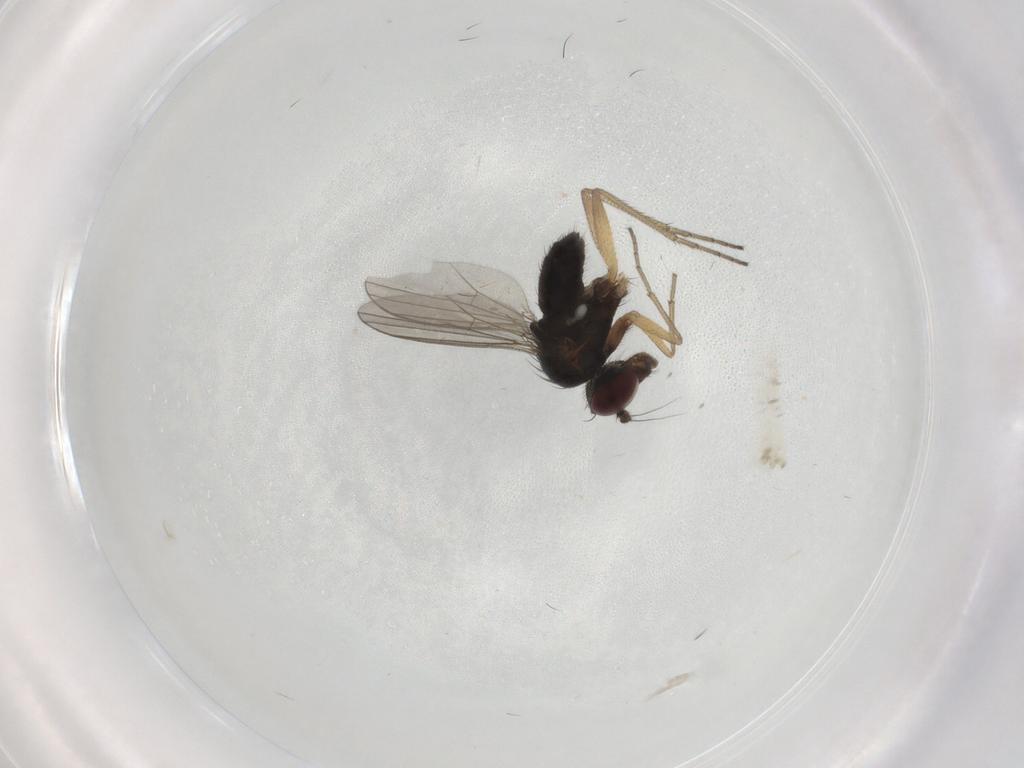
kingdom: Animalia
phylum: Arthropoda
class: Insecta
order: Diptera
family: Dolichopodidae
